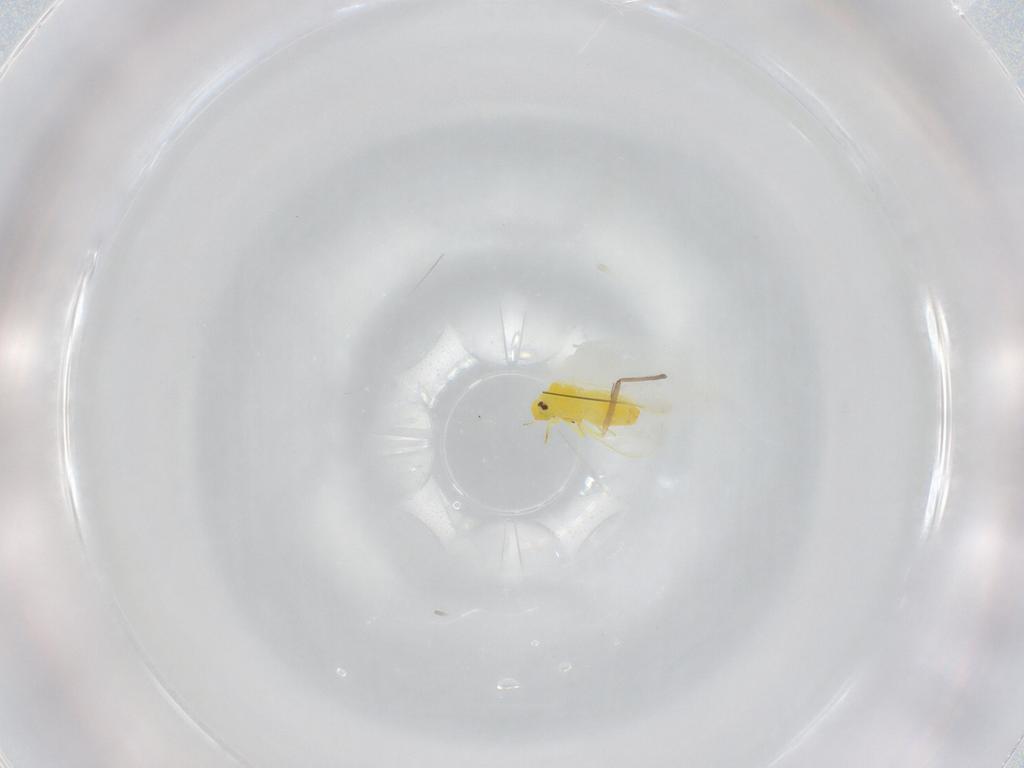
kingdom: Animalia
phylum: Arthropoda
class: Insecta
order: Hemiptera
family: Aleyrodidae
